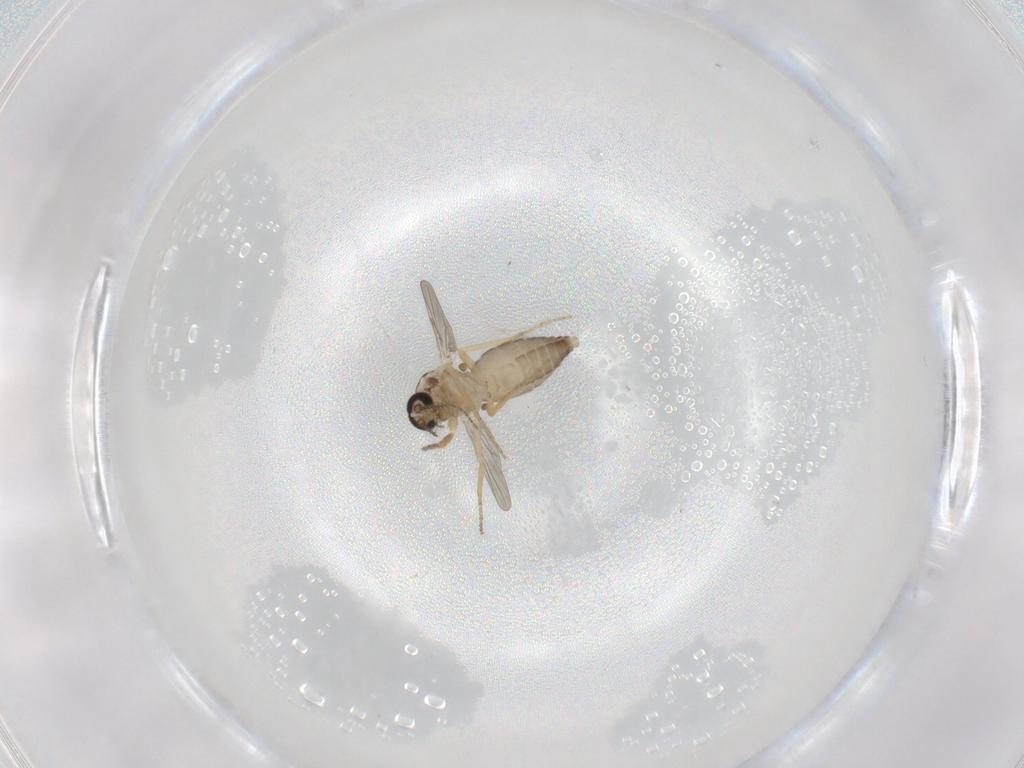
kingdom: Animalia
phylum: Arthropoda
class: Insecta
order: Diptera
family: Ceratopogonidae
